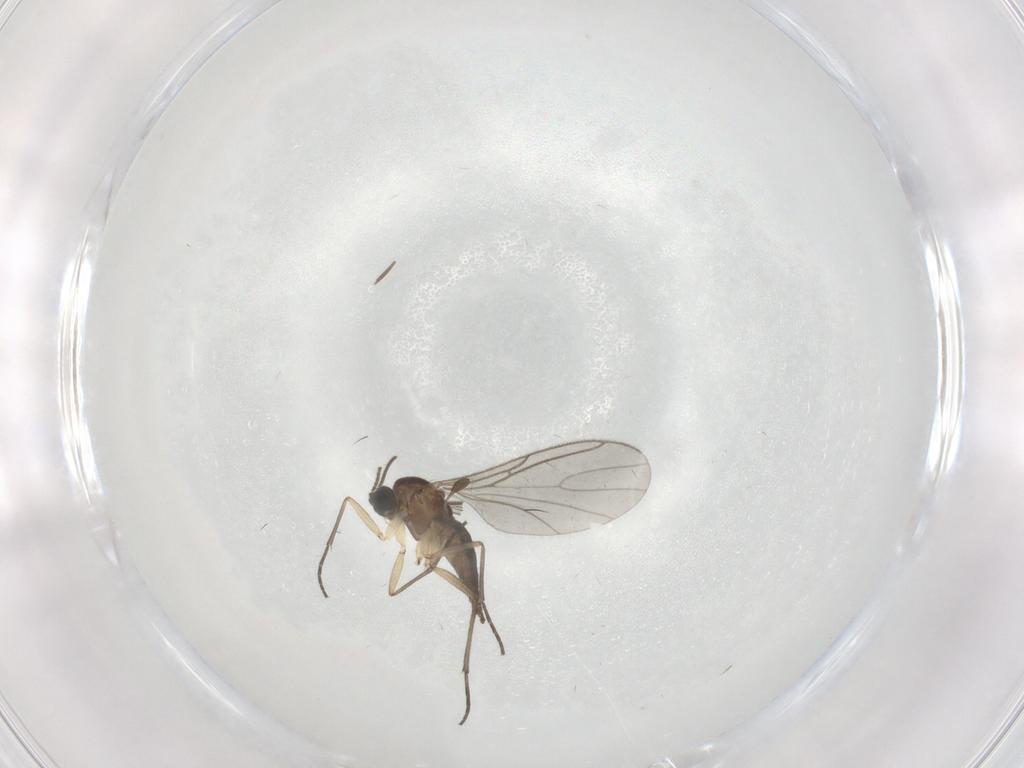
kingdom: Animalia
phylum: Arthropoda
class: Insecta
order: Diptera
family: Sciaridae
